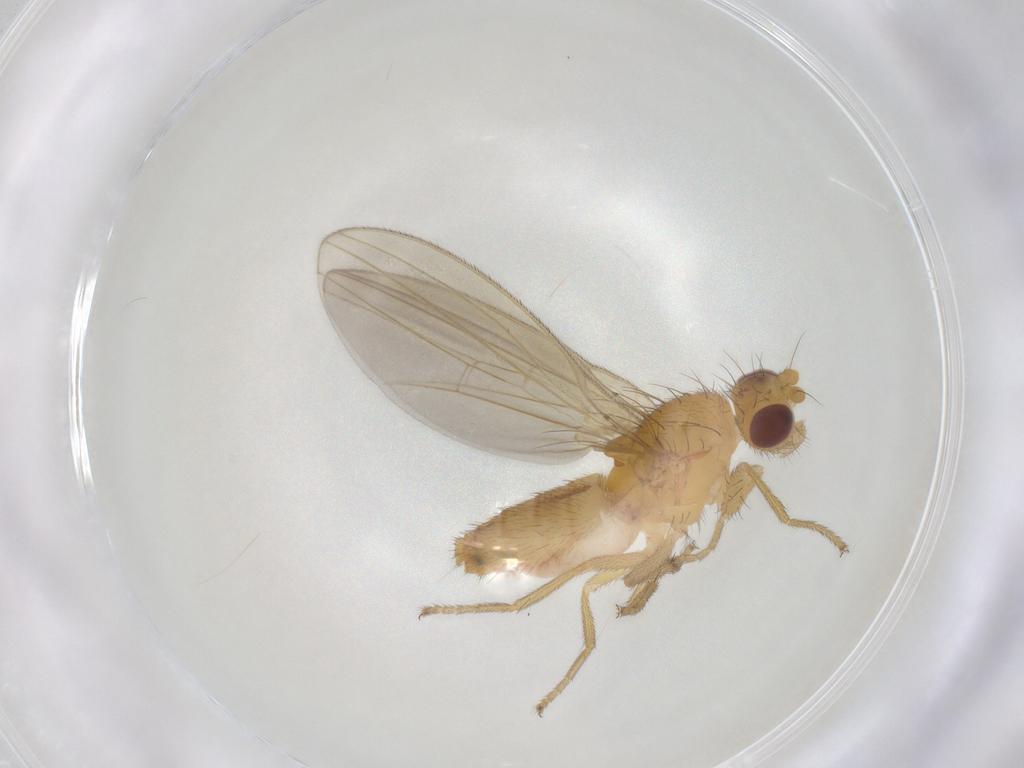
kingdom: Animalia
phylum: Arthropoda
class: Insecta
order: Diptera
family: Natalimyzidae
